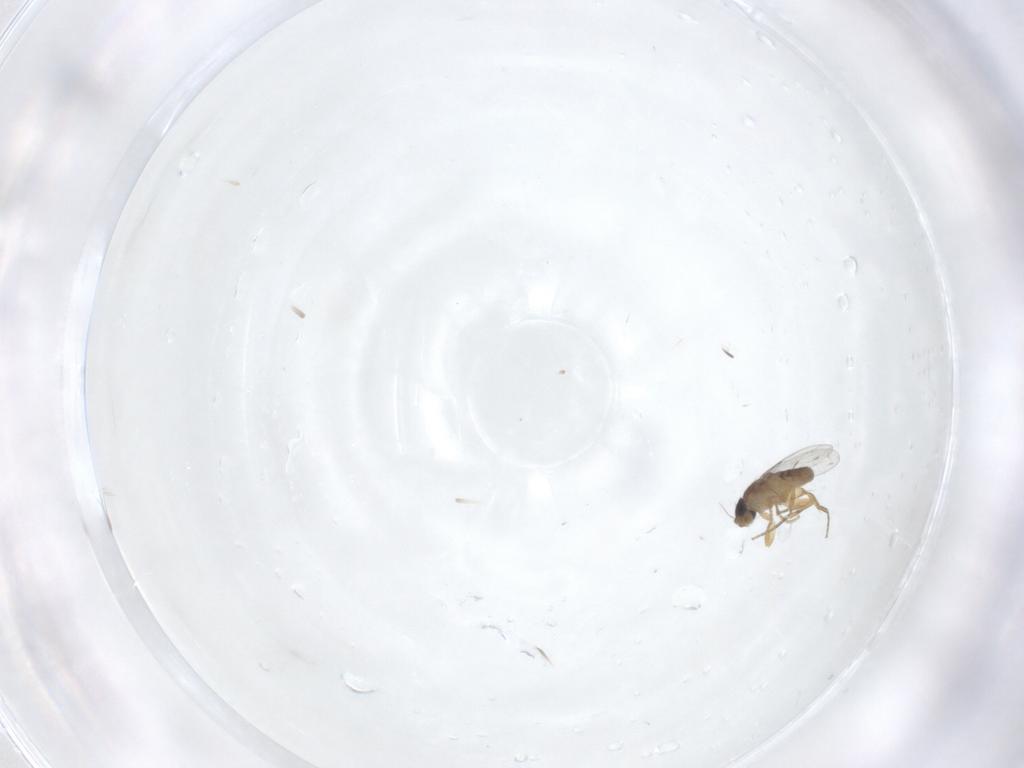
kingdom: Animalia
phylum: Arthropoda
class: Insecta
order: Diptera
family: Cecidomyiidae
